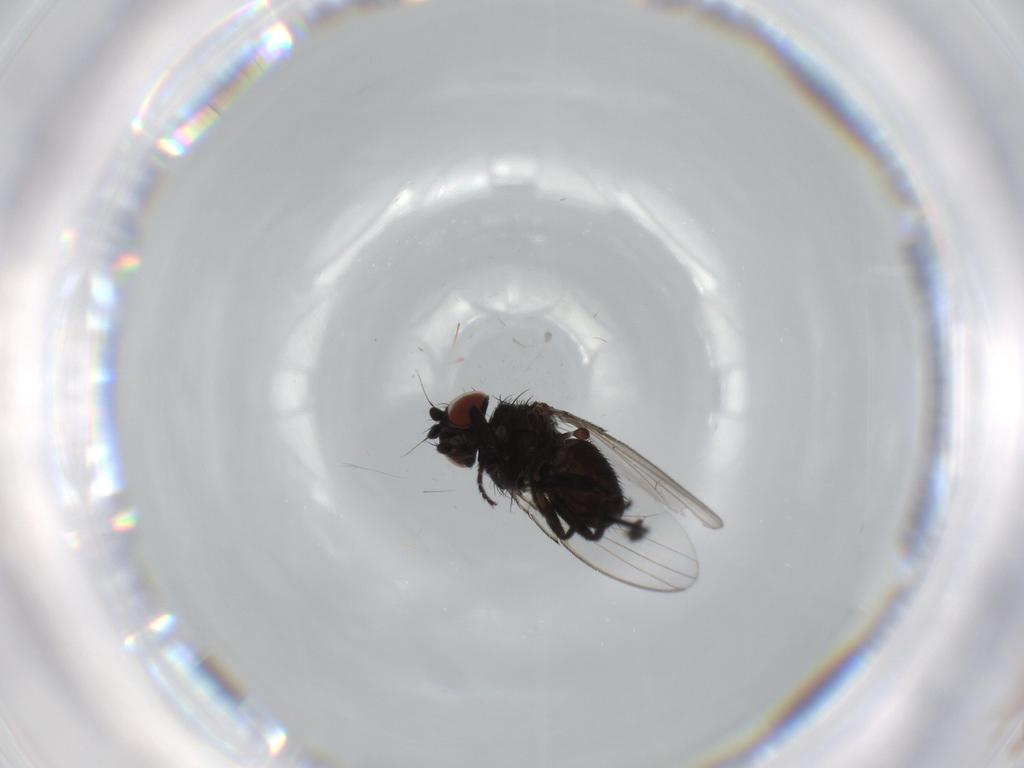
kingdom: Animalia
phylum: Arthropoda
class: Insecta
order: Diptera
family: Milichiidae
